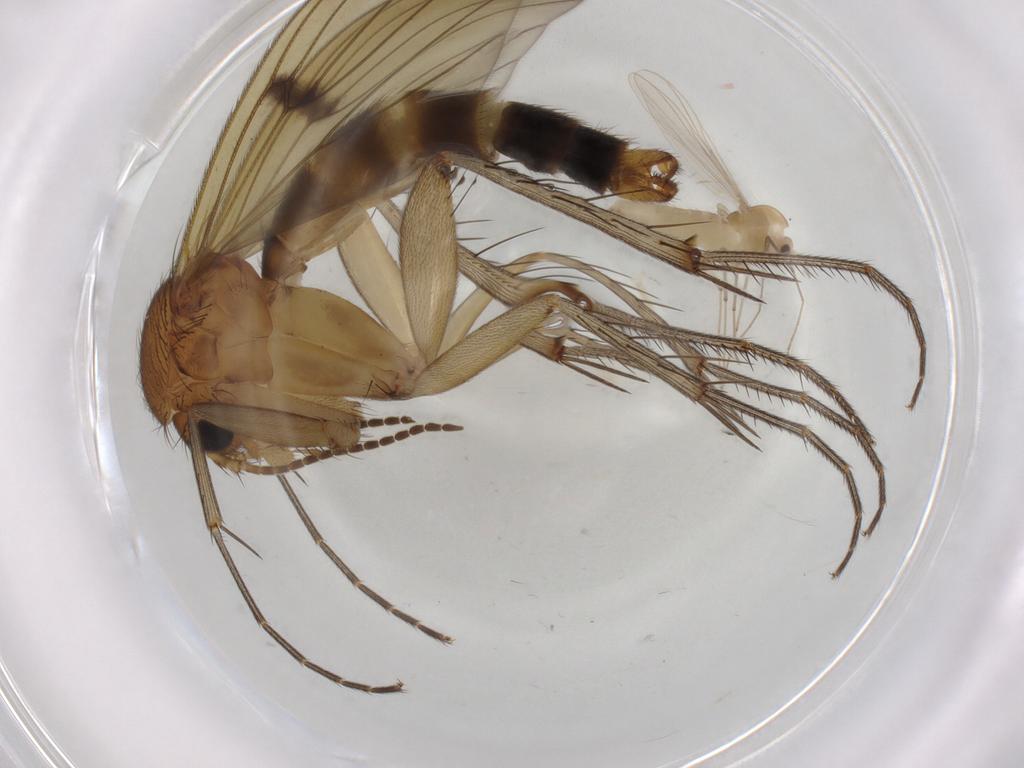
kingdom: Animalia
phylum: Arthropoda
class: Insecta
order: Diptera
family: Chironomidae
